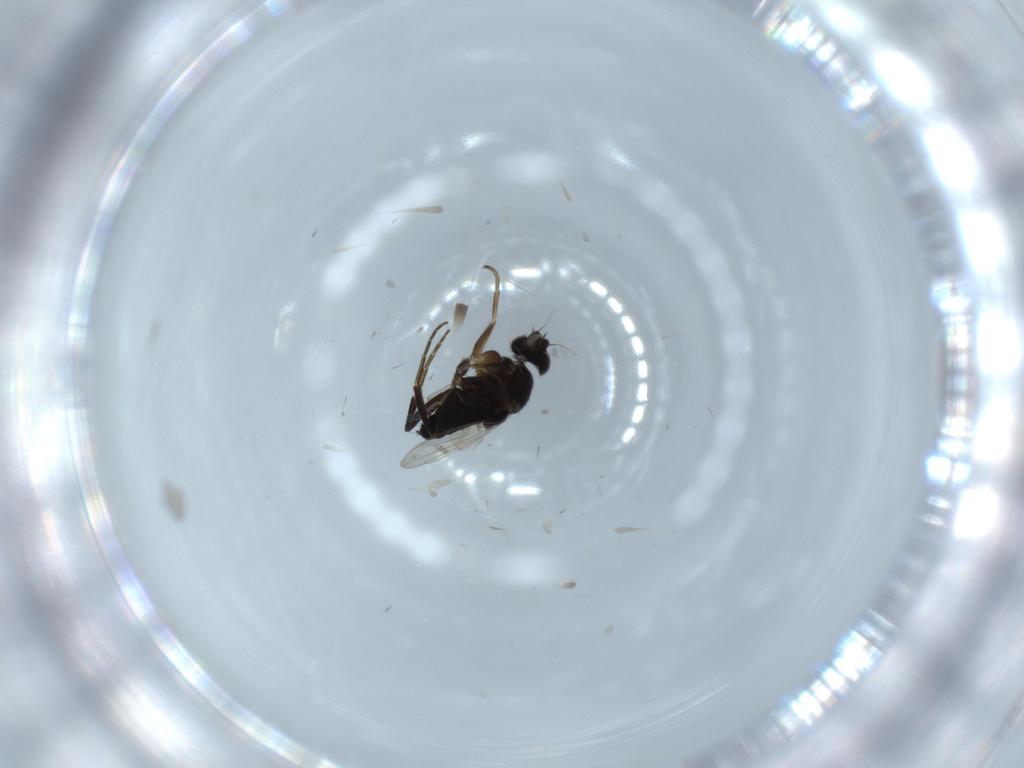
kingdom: Animalia
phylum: Arthropoda
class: Insecta
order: Diptera
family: Phoridae
